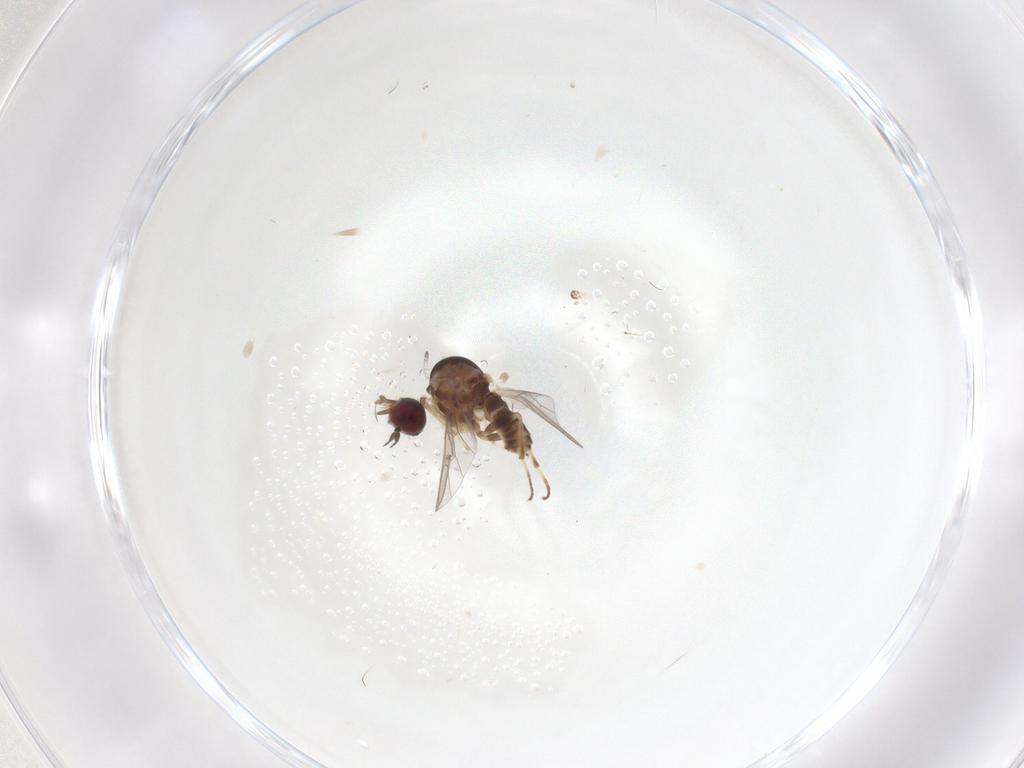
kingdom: Animalia
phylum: Arthropoda
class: Insecta
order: Diptera
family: Bombyliidae
